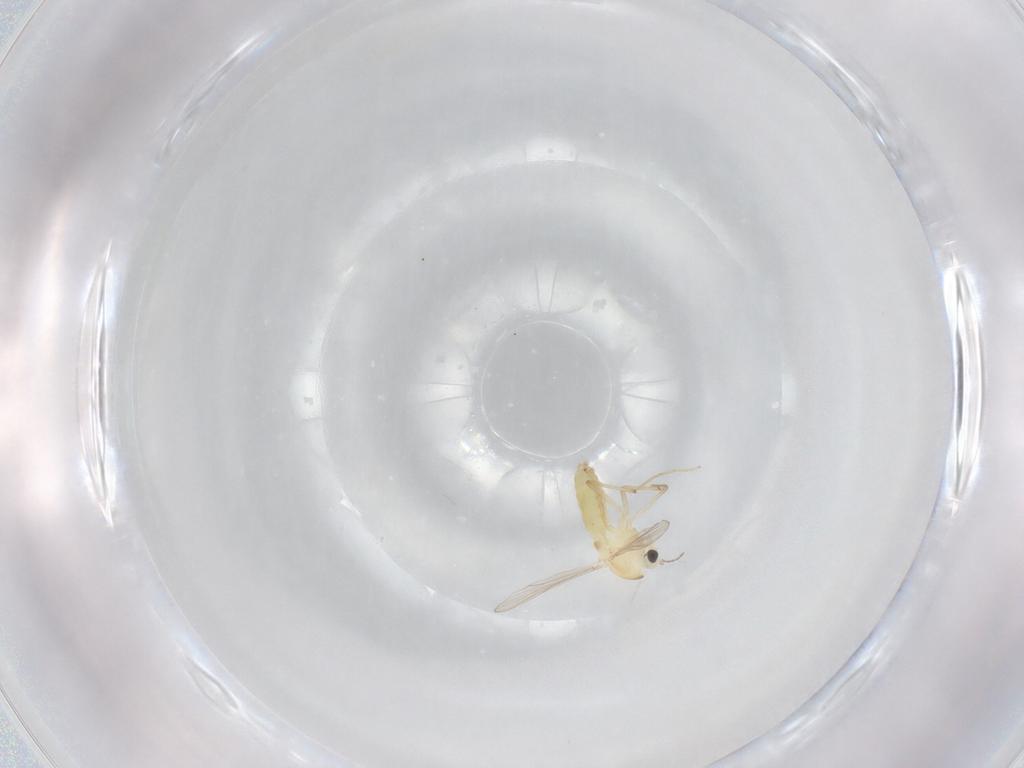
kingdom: Animalia
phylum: Arthropoda
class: Insecta
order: Diptera
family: Chironomidae
